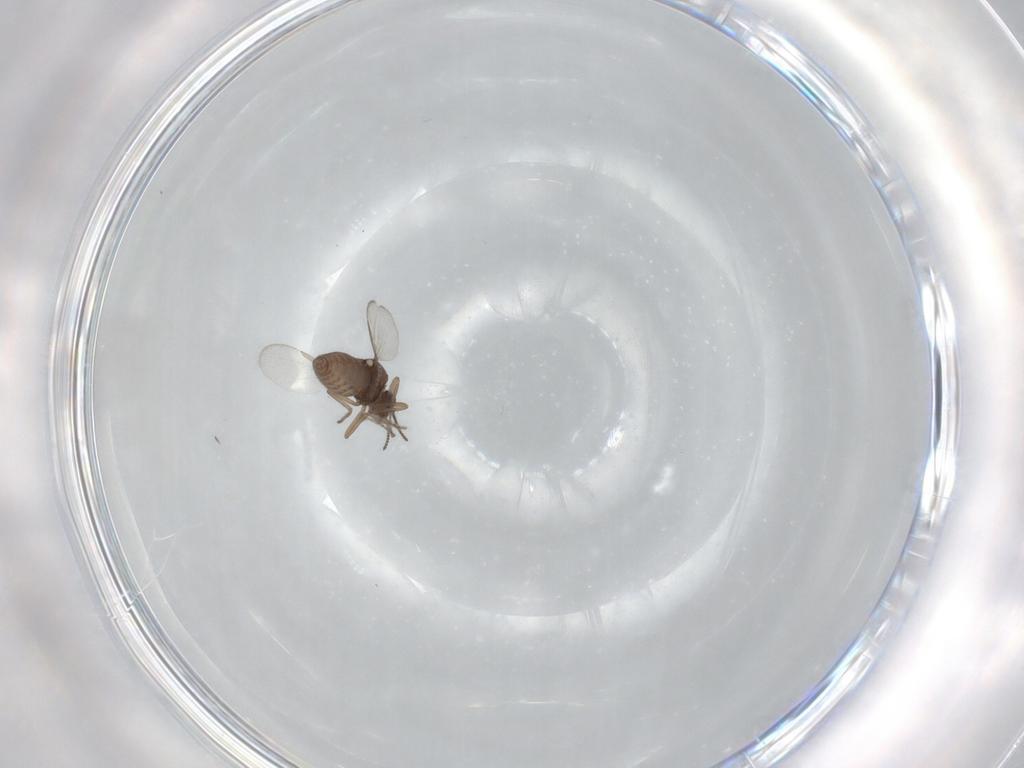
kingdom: Animalia
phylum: Arthropoda
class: Insecta
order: Diptera
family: Ceratopogonidae
